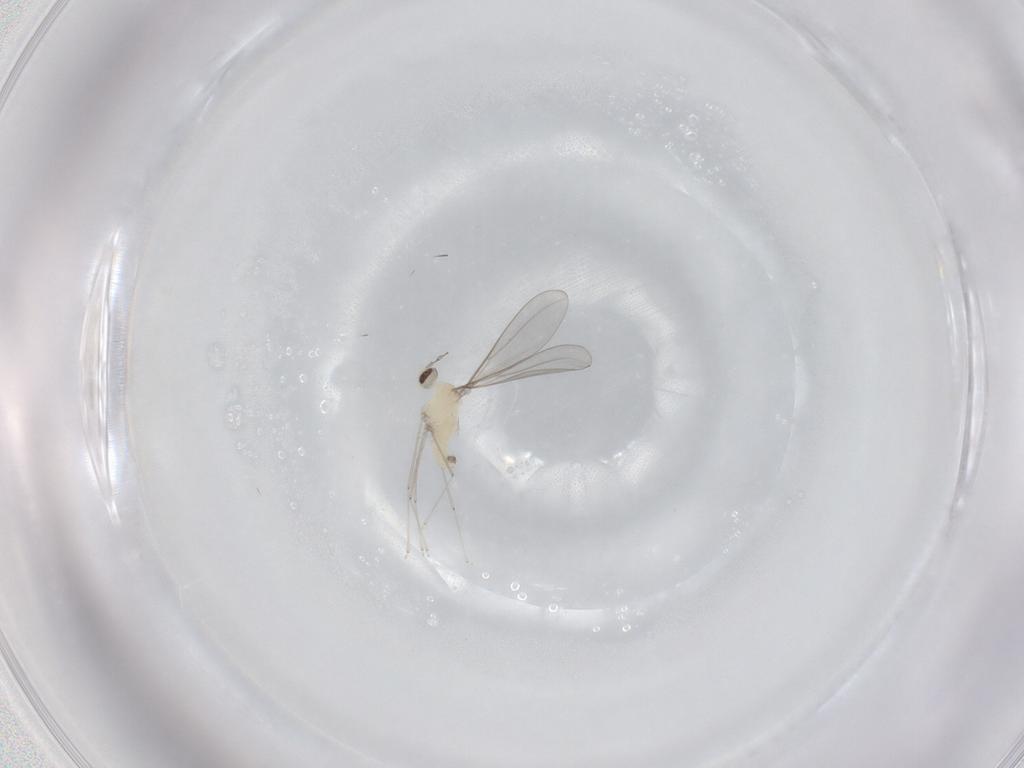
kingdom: Animalia
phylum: Arthropoda
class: Insecta
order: Diptera
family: Cecidomyiidae
